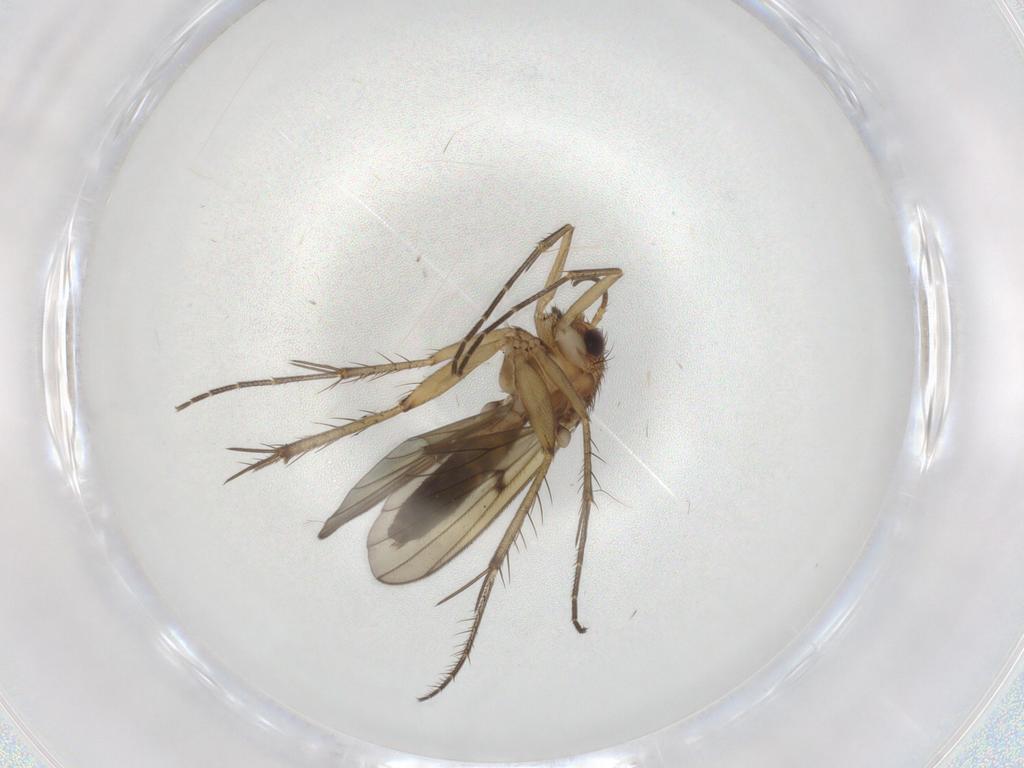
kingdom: Animalia
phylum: Arthropoda
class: Insecta
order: Diptera
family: Mycetophilidae
